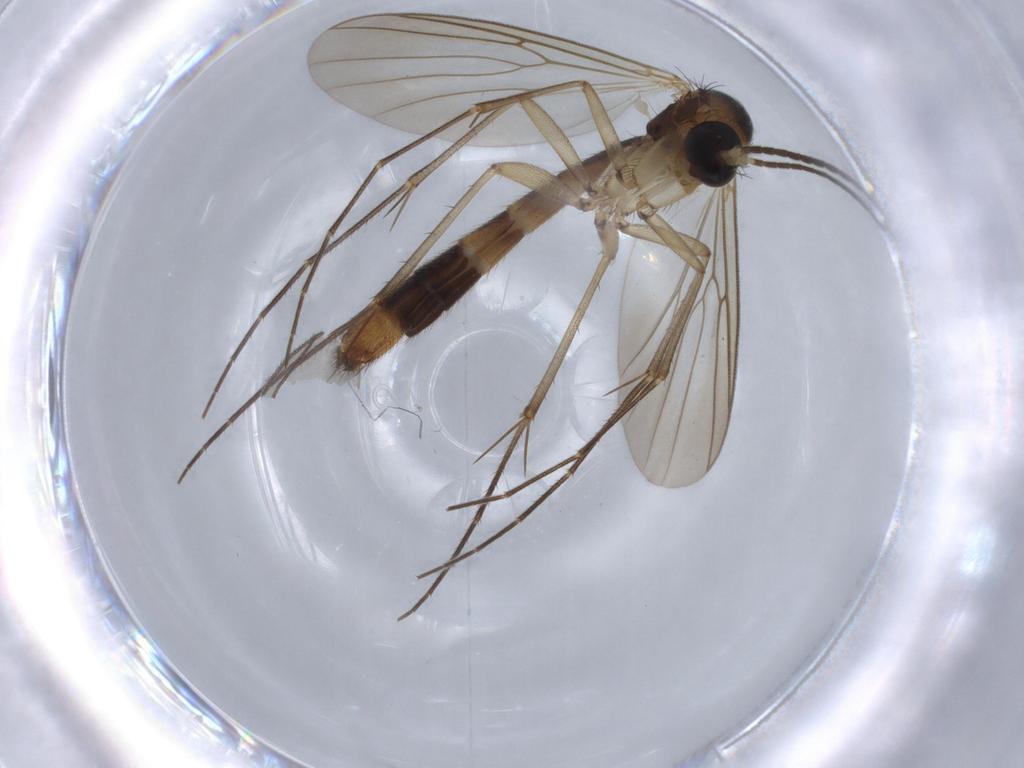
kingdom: Animalia
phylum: Arthropoda
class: Insecta
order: Diptera
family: Mycetophilidae
